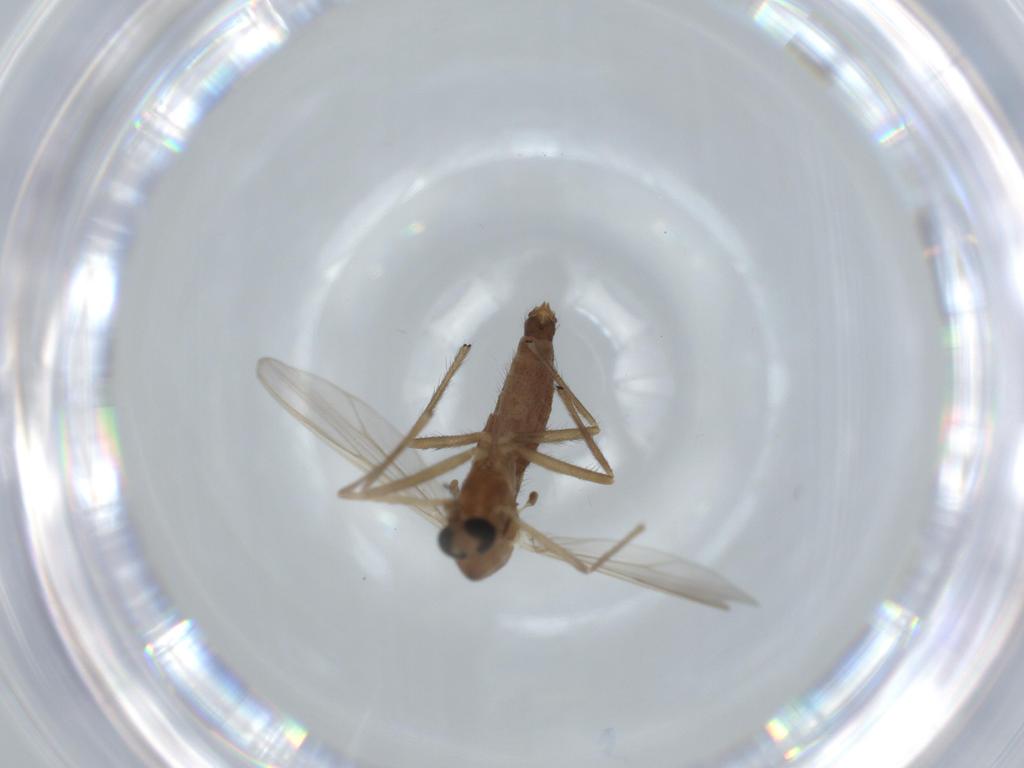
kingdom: Animalia
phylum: Arthropoda
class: Insecta
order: Diptera
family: Chironomidae
